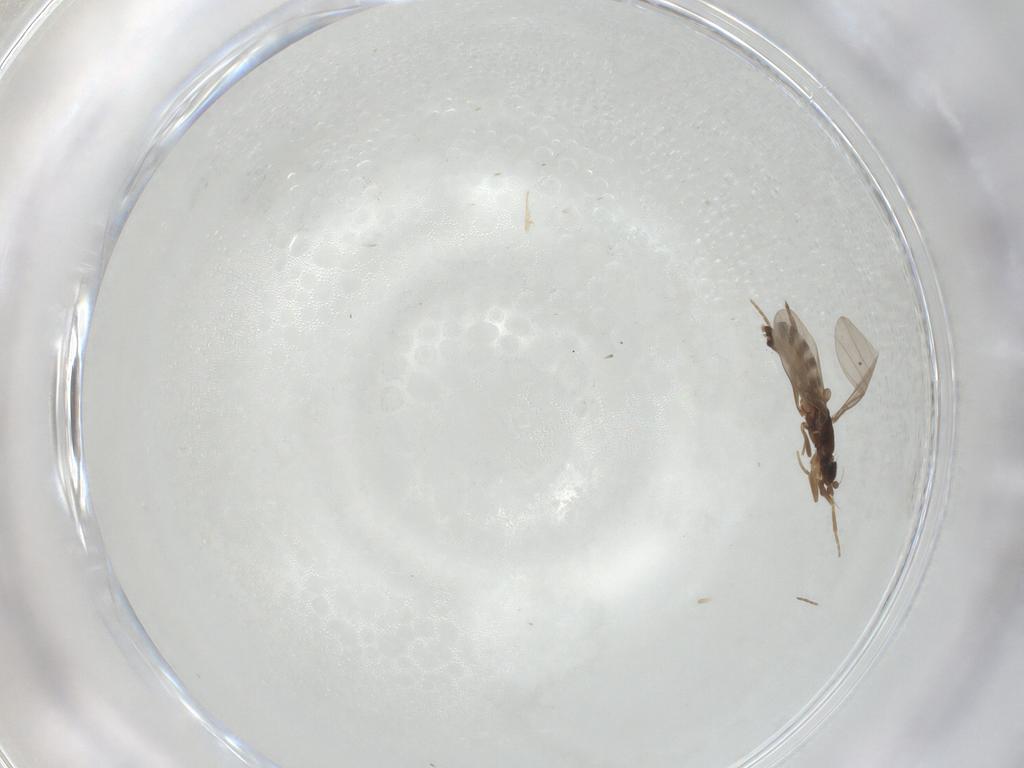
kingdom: Animalia
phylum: Arthropoda
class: Insecta
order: Diptera
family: Phoridae
